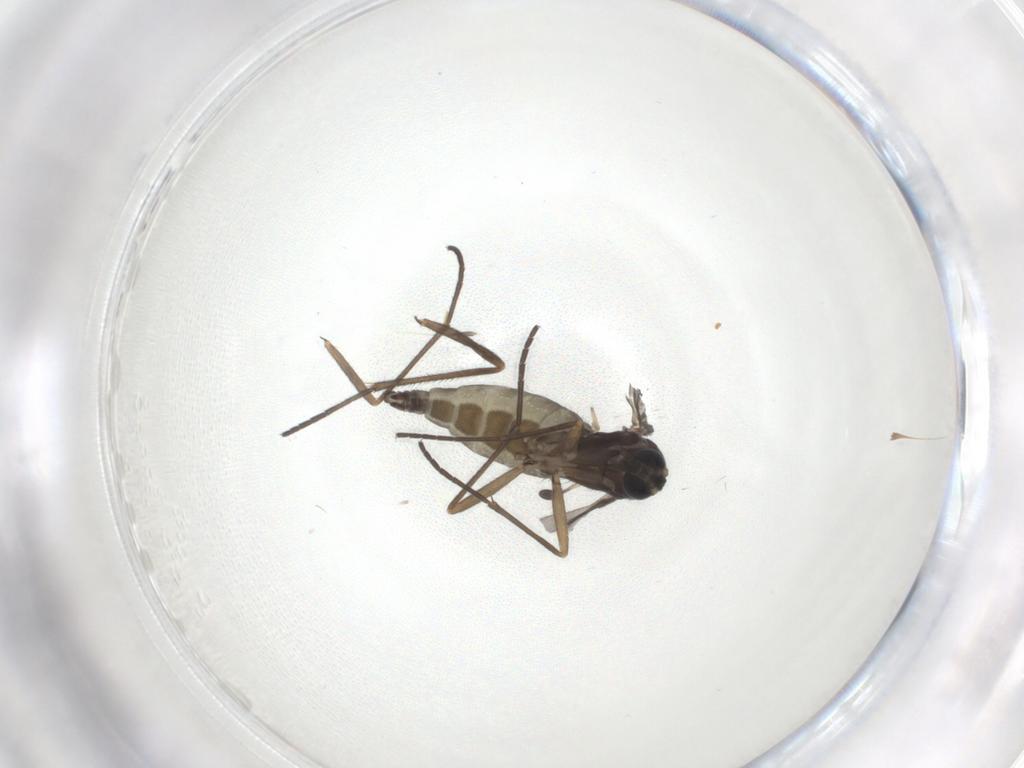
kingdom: Animalia
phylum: Arthropoda
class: Insecta
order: Diptera
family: Sciaridae
